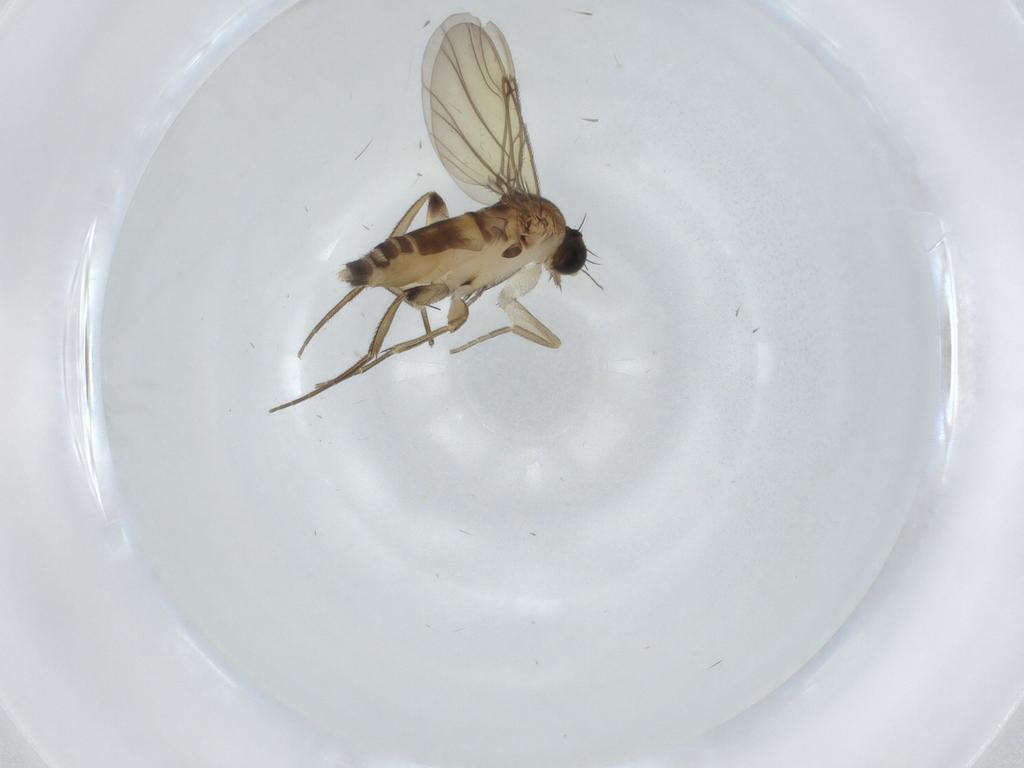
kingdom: Animalia
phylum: Arthropoda
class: Insecta
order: Diptera
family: Phoridae
